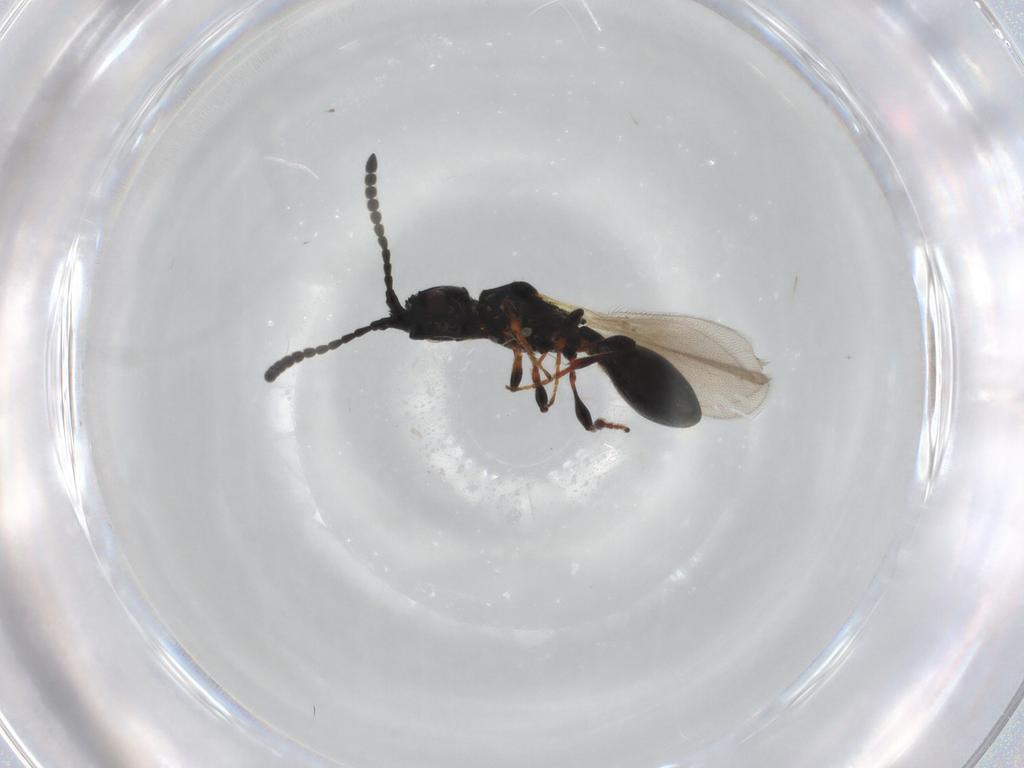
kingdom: Animalia
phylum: Arthropoda
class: Insecta
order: Hymenoptera
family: Diapriidae
